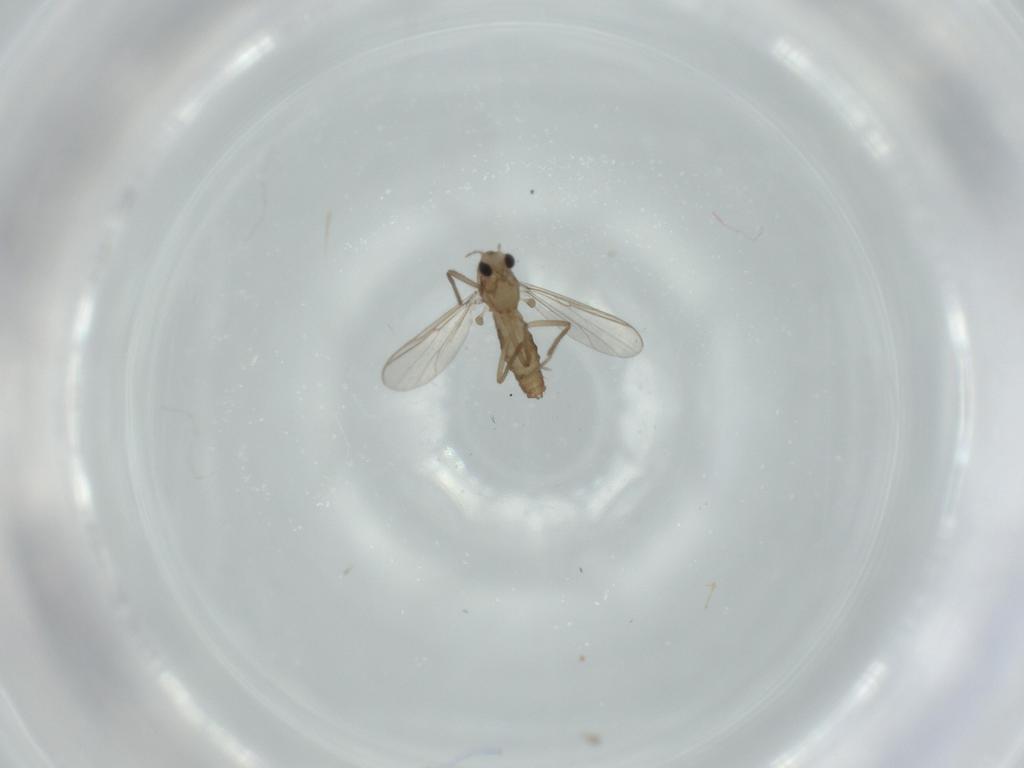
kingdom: Animalia
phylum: Arthropoda
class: Insecta
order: Diptera
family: Chironomidae
